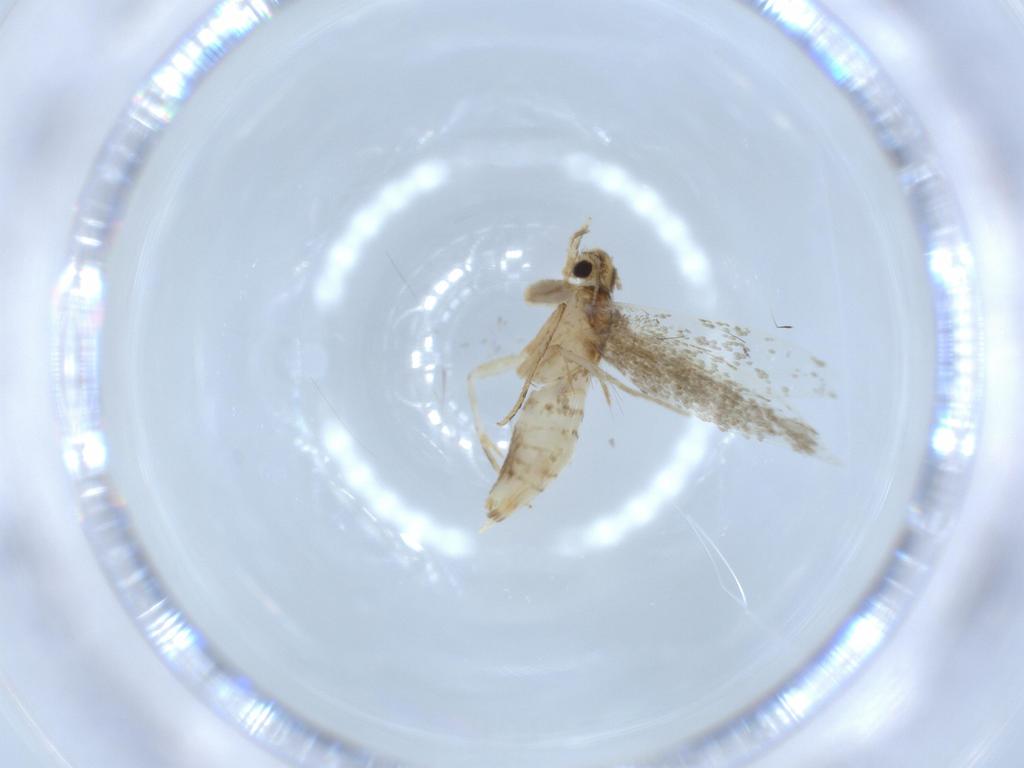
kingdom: Animalia
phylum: Arthropoda
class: Insecta
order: Lepidoptera
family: Tineidae
